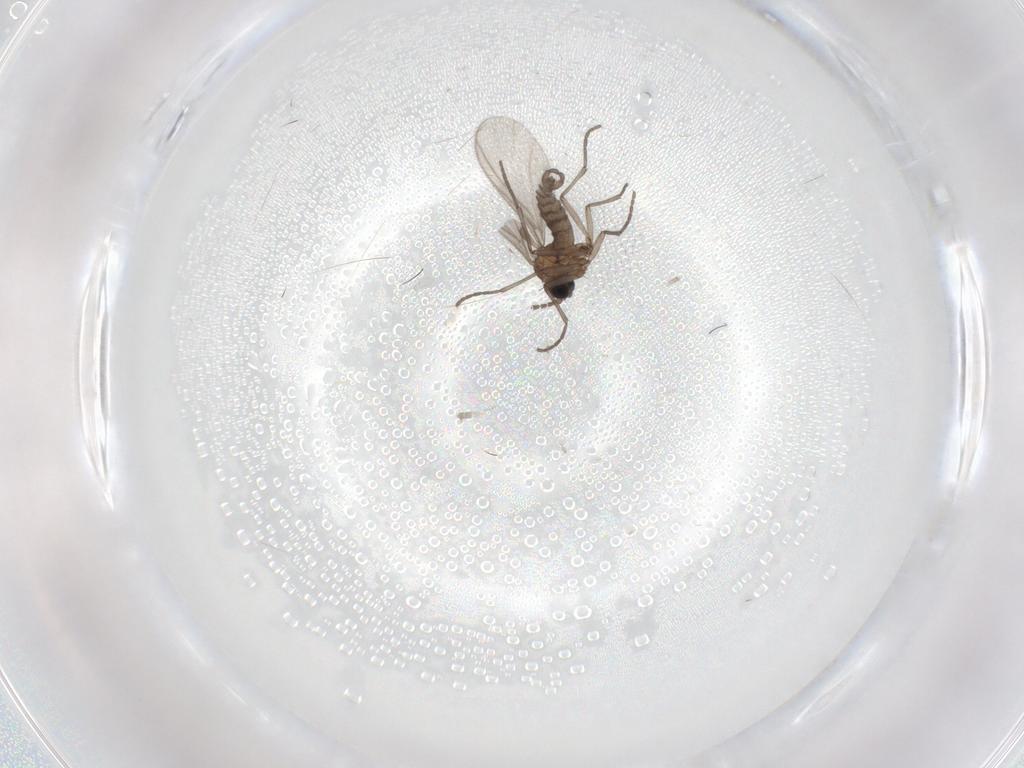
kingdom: Animalia
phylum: Arthropoda
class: Insecta
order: Diptera
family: Sciaridae
